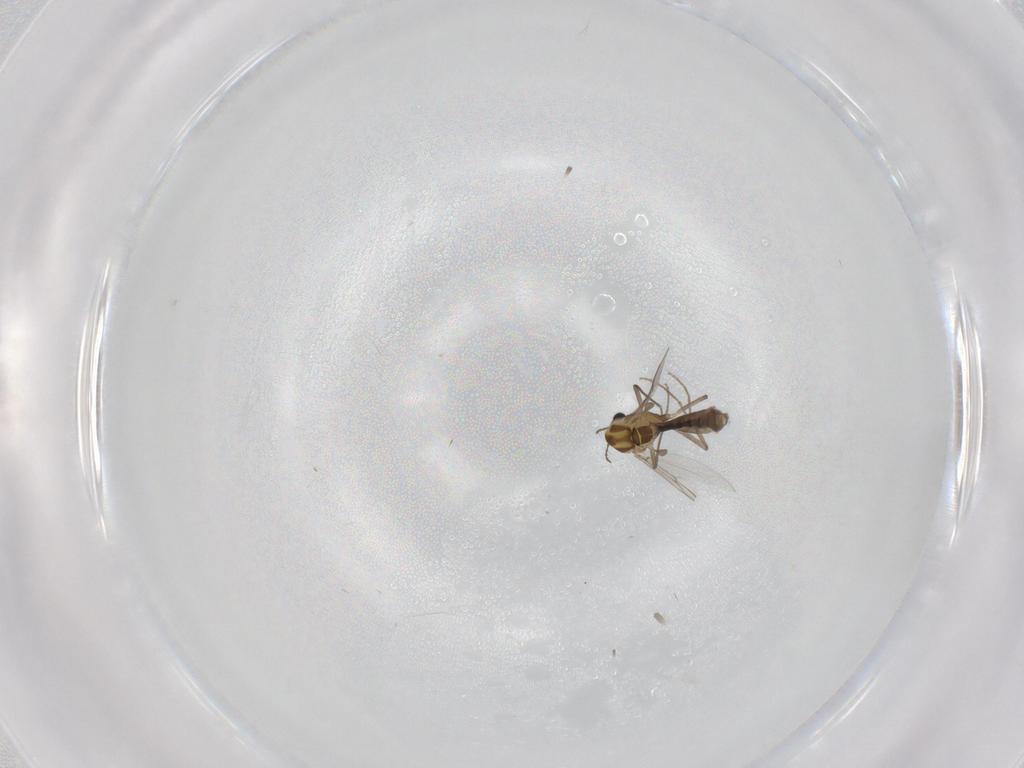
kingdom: Animalia
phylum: Arthropoda
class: Insecta
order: Diptera
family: Chironomidae
